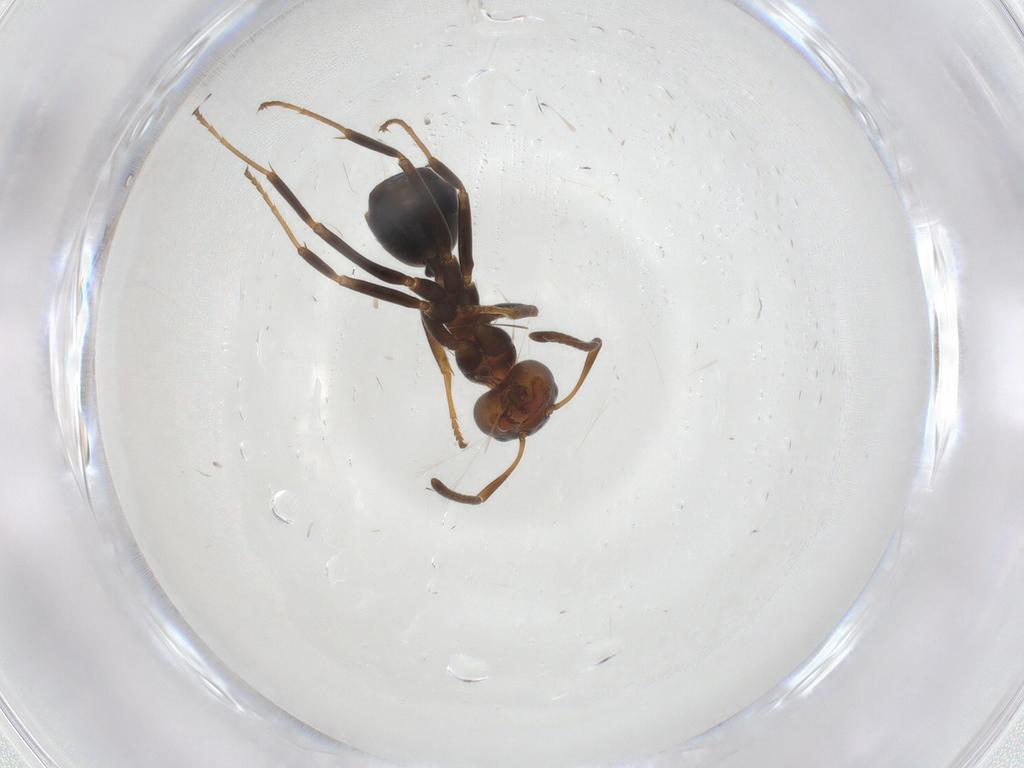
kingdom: Animalia
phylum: Arthropoda
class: Insecta
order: Hymenoptera
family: Formicidae
